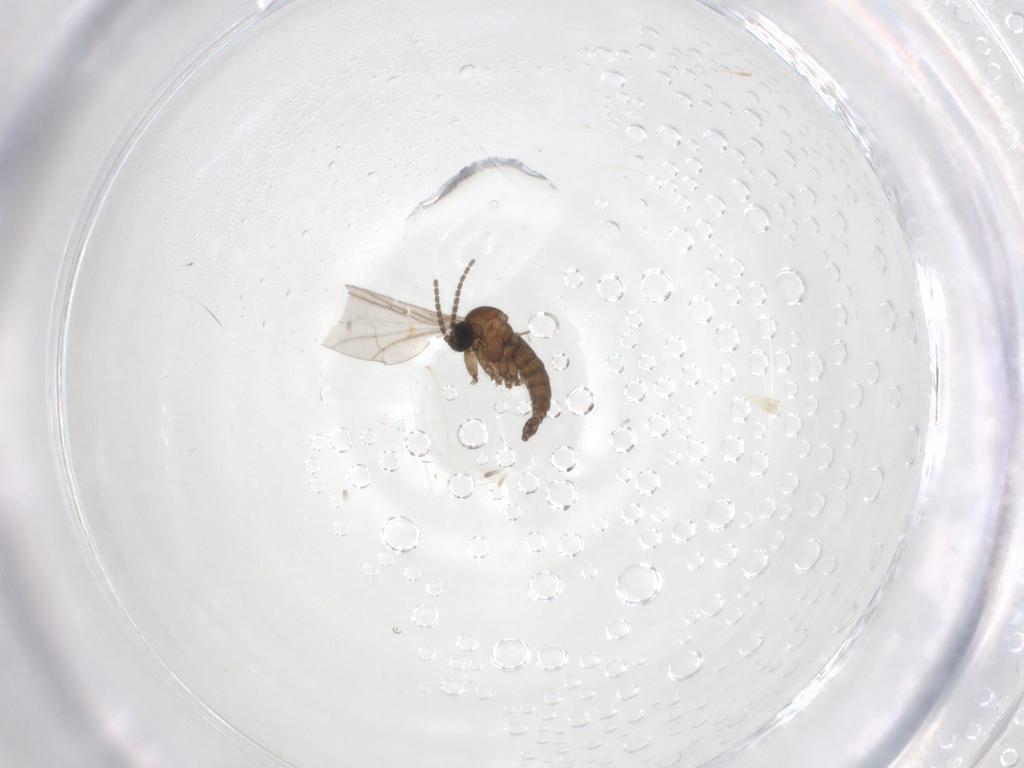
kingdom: Animalia
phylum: Arthropoda
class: Insecta
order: Diptera
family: Sciaridae
